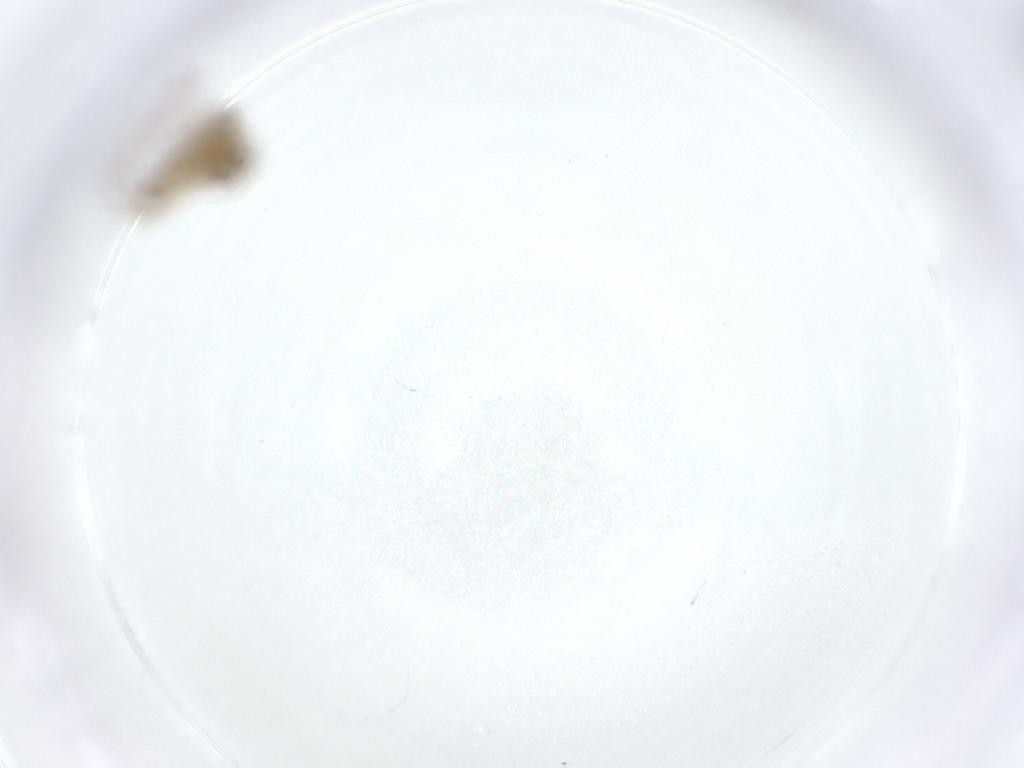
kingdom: Animalia
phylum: Arthropoda
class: Insecta
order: Diptera
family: Chironomidae
